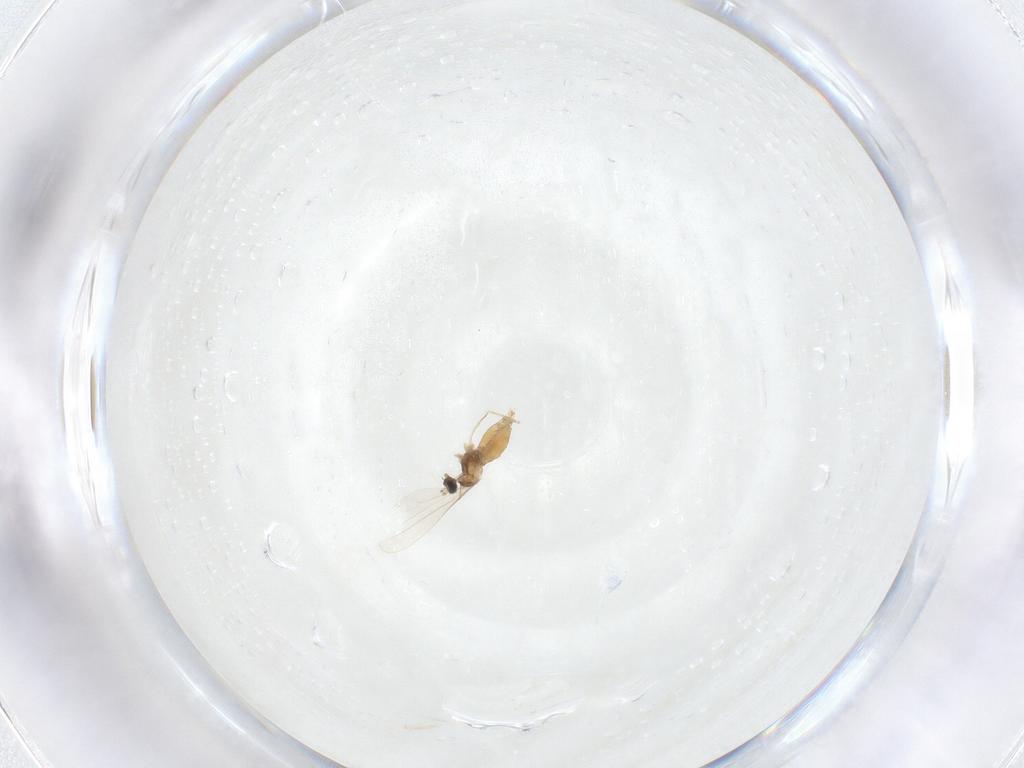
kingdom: Animalia
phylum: Arthropoda
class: Insecta
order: Diptera
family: Cecidomyiidae
